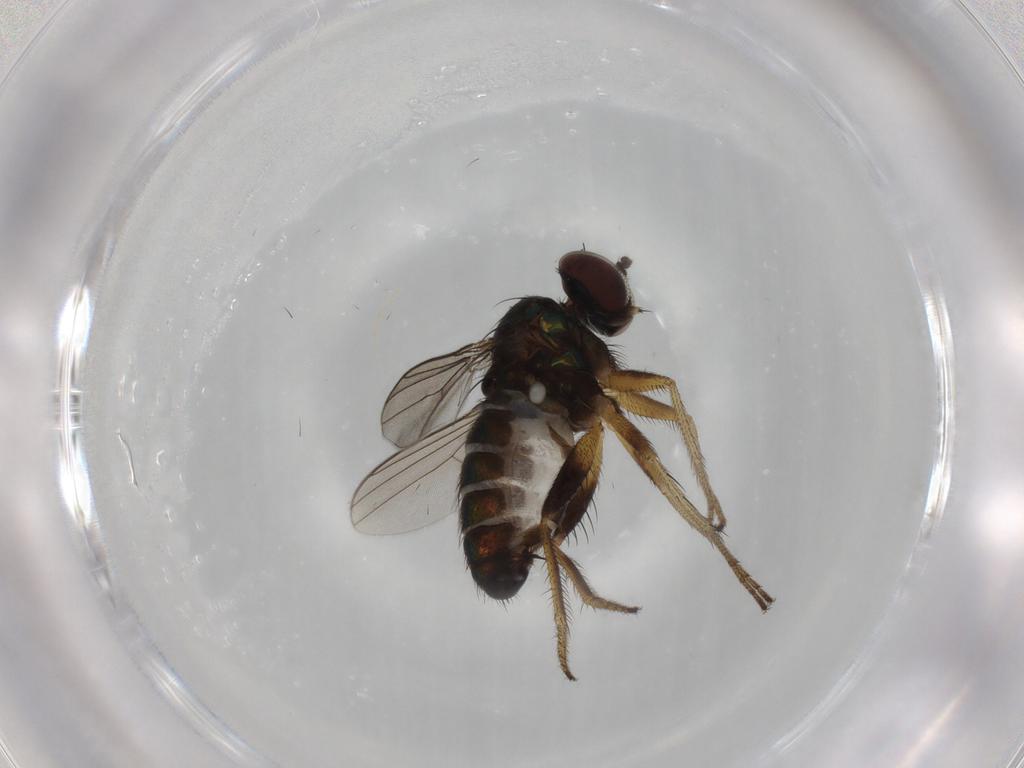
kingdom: Animalia
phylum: Arthropoda
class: Insecta
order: Diptera
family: Dolichopodidae
